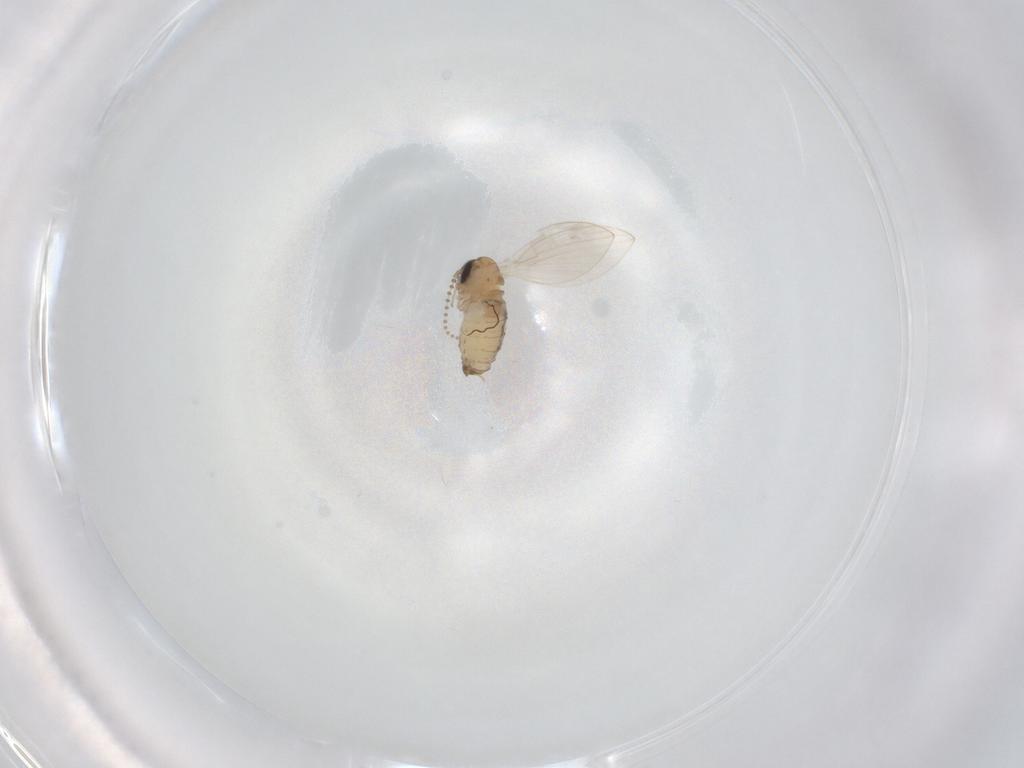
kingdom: Animalia
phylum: Arthropoda
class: Insecta
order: Diptera
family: Psychodidae
